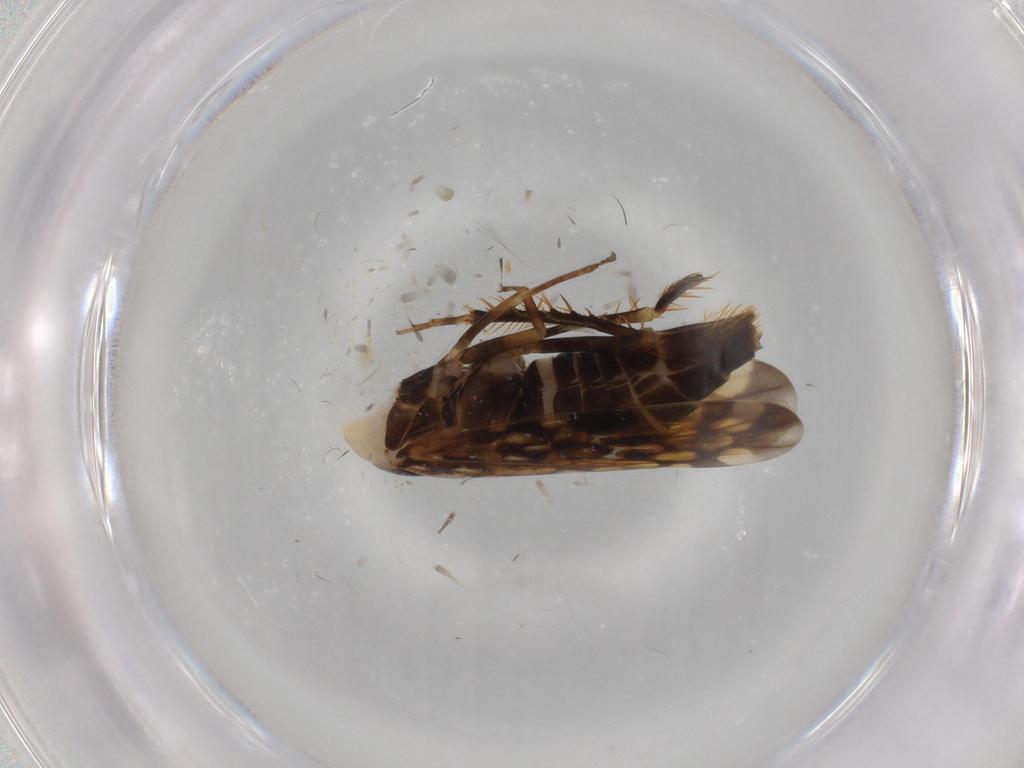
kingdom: Animalia
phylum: Arthropoda
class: Insecta
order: Hemiptera
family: Cicadellidae
